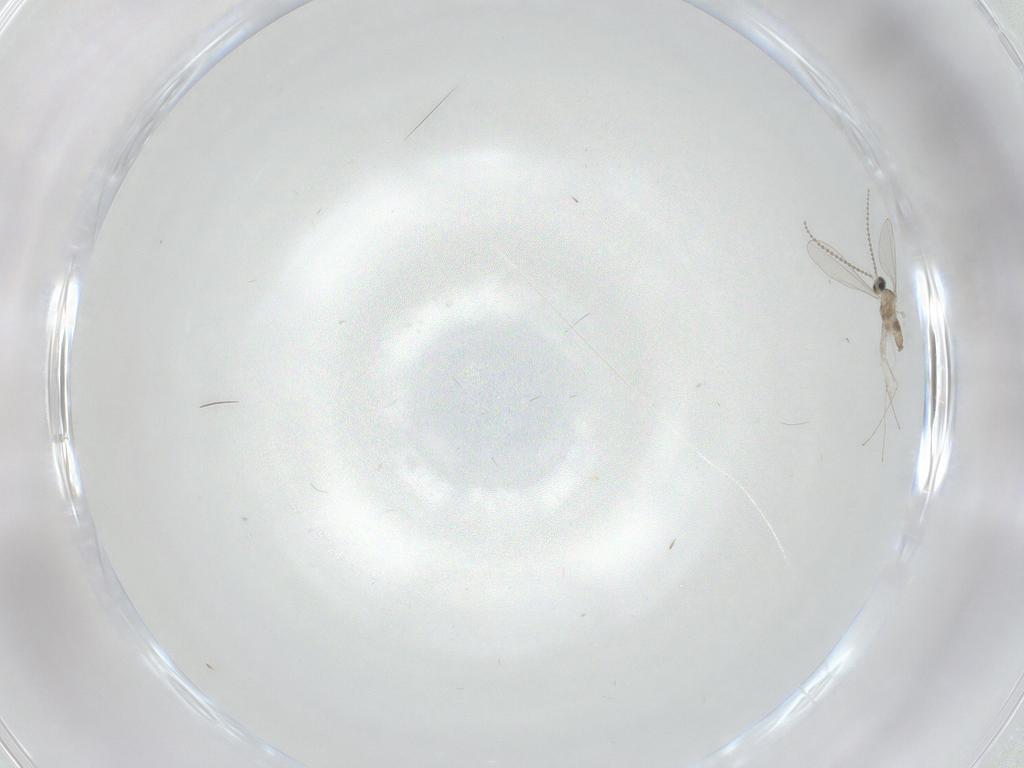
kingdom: Animalia
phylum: Arthropoda
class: Insecta
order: Diptera
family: Cecidomyiidae
